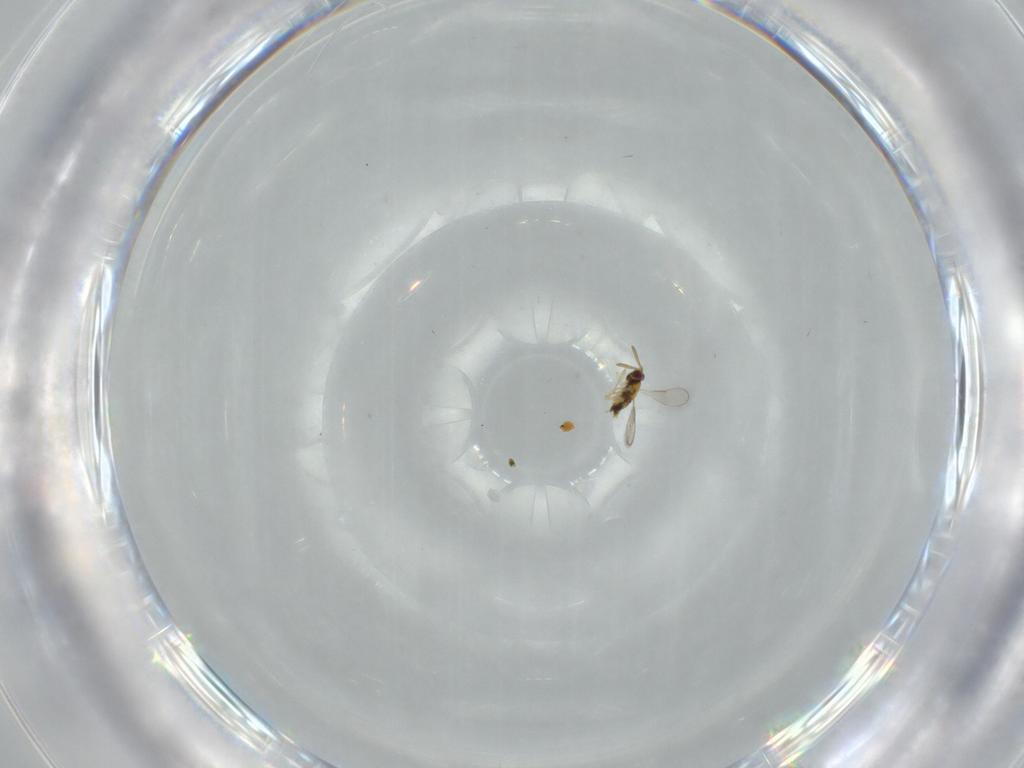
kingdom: Animalia
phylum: Arthropoda
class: Insecta
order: Hymenoptera
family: Aphelinidae
